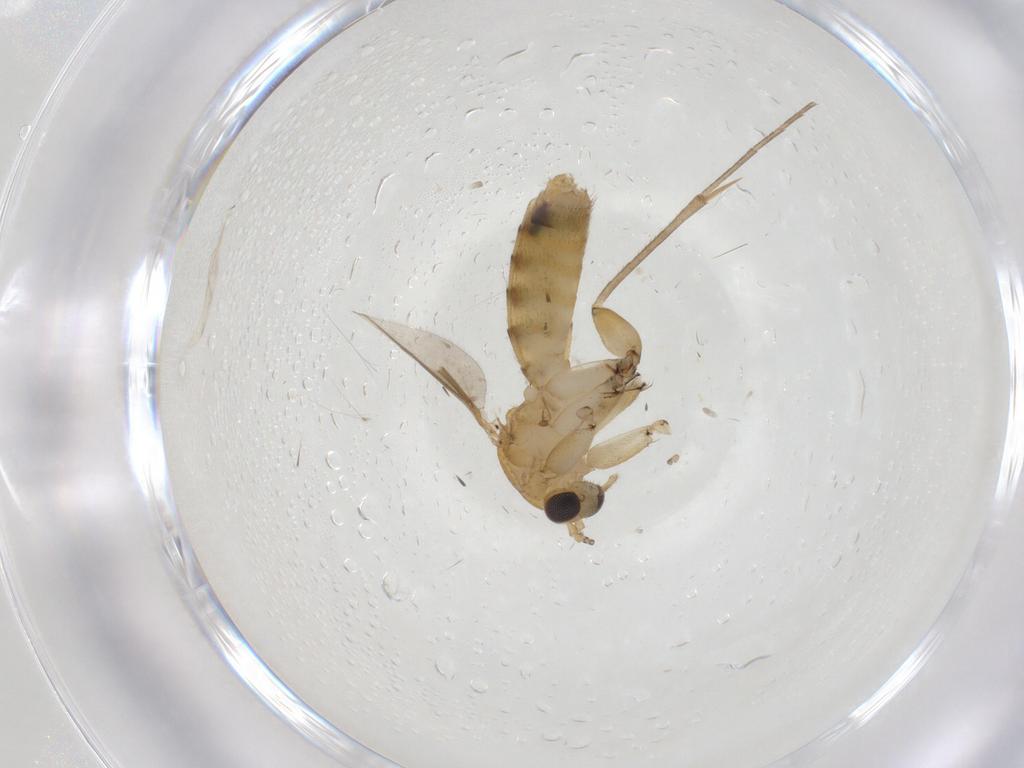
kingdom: Animalia
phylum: Arthropoda
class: Insecta
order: Diptera
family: Mycetophilidae
